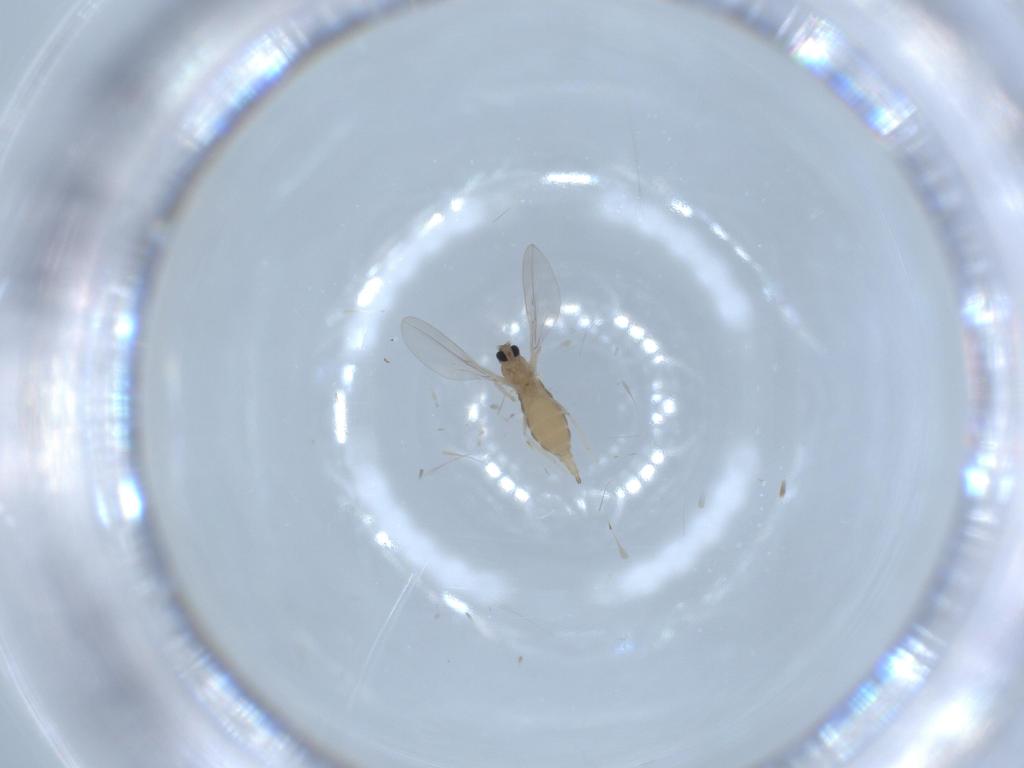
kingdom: Animalia
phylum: Arthropoda
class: Insecta
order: Diptera
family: Cecidomyiidae
